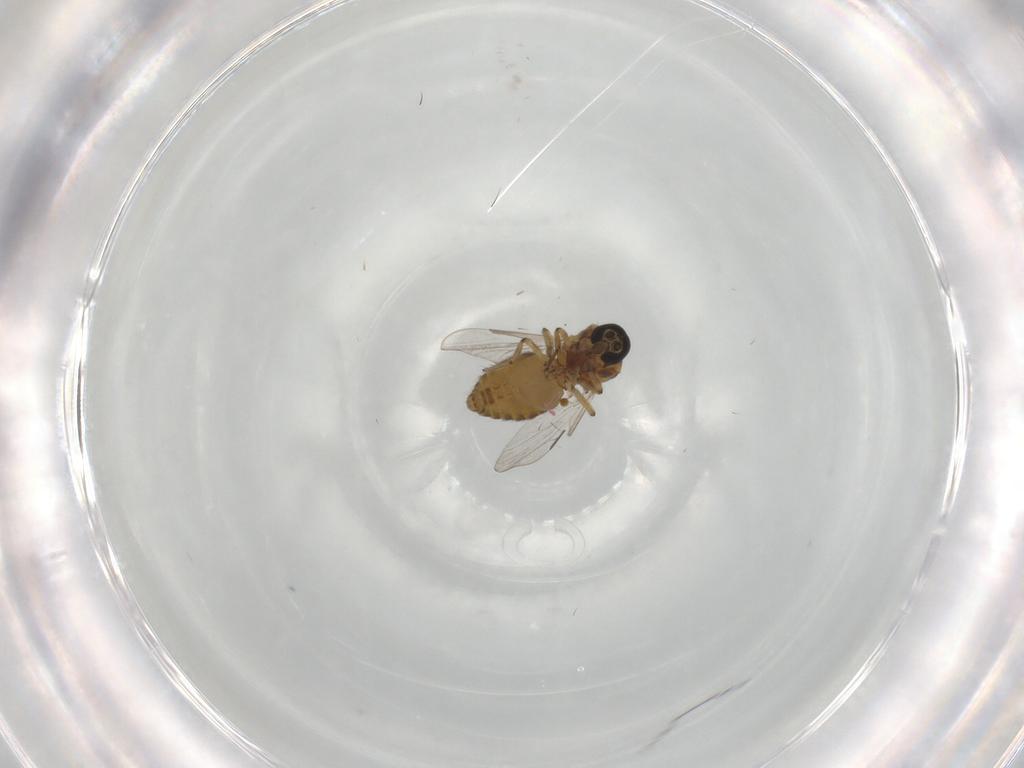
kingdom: Animalia
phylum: Arthropoda
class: Insecta
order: Diptera
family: Ceratopogonidae
